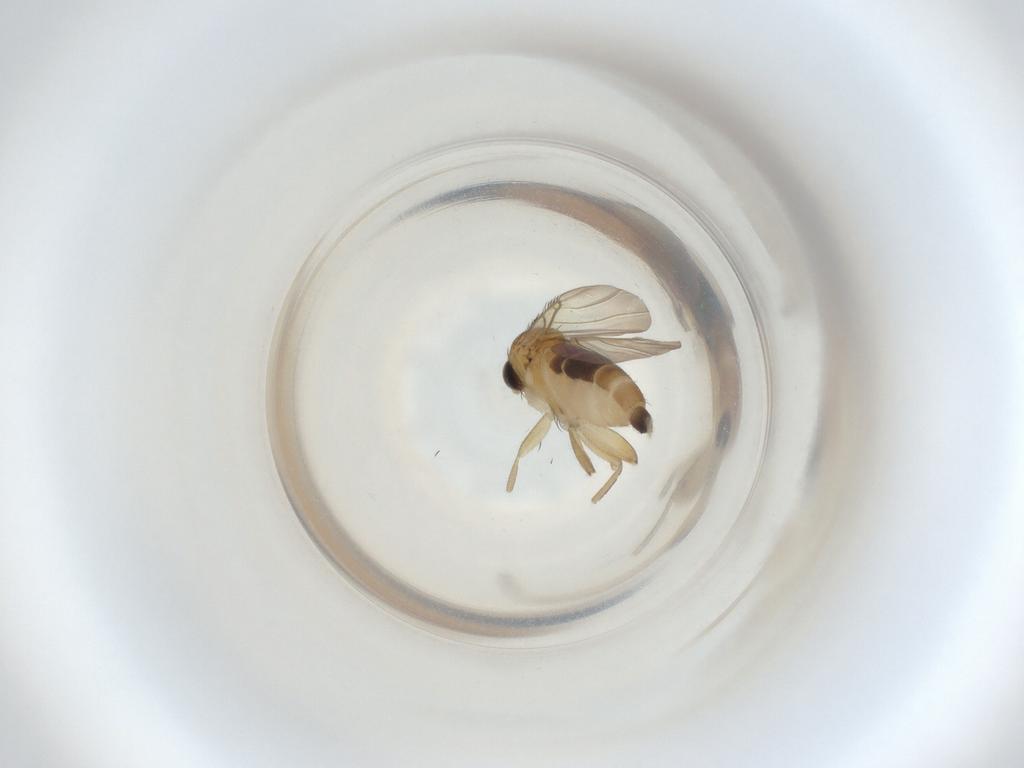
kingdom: Animalia
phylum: Arthropoda
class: Insecta
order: Diptera
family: Phoridae
